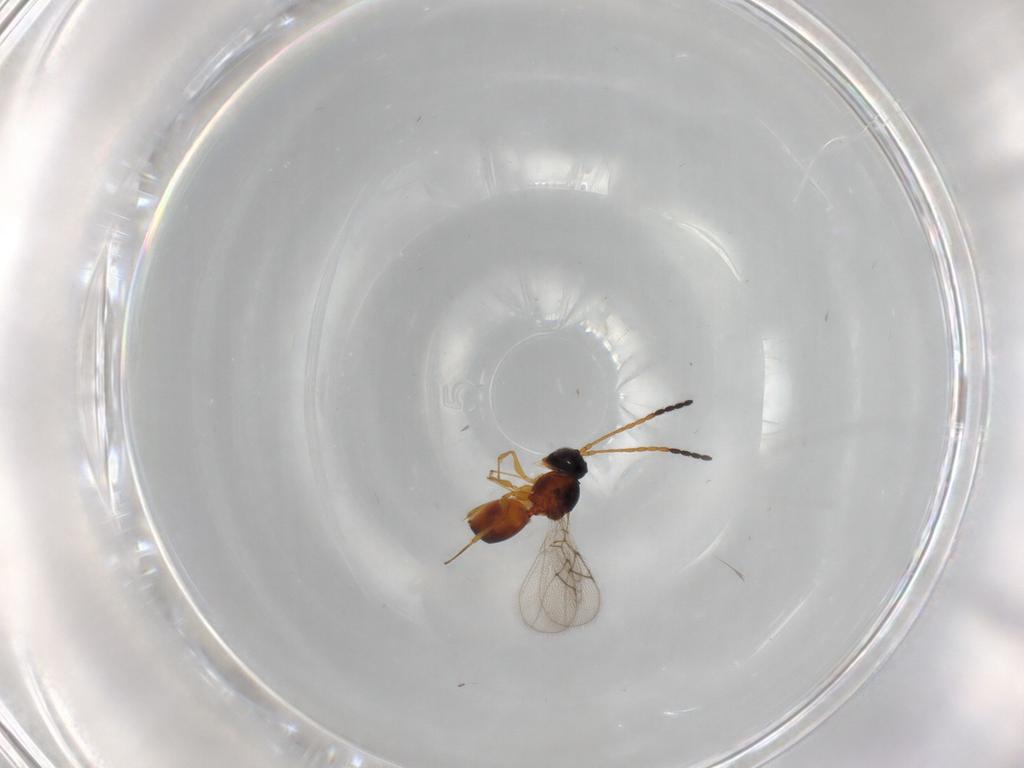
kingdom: Animalia
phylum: Arthropoda
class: Insecta
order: Hymenoptera
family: Figitidae
